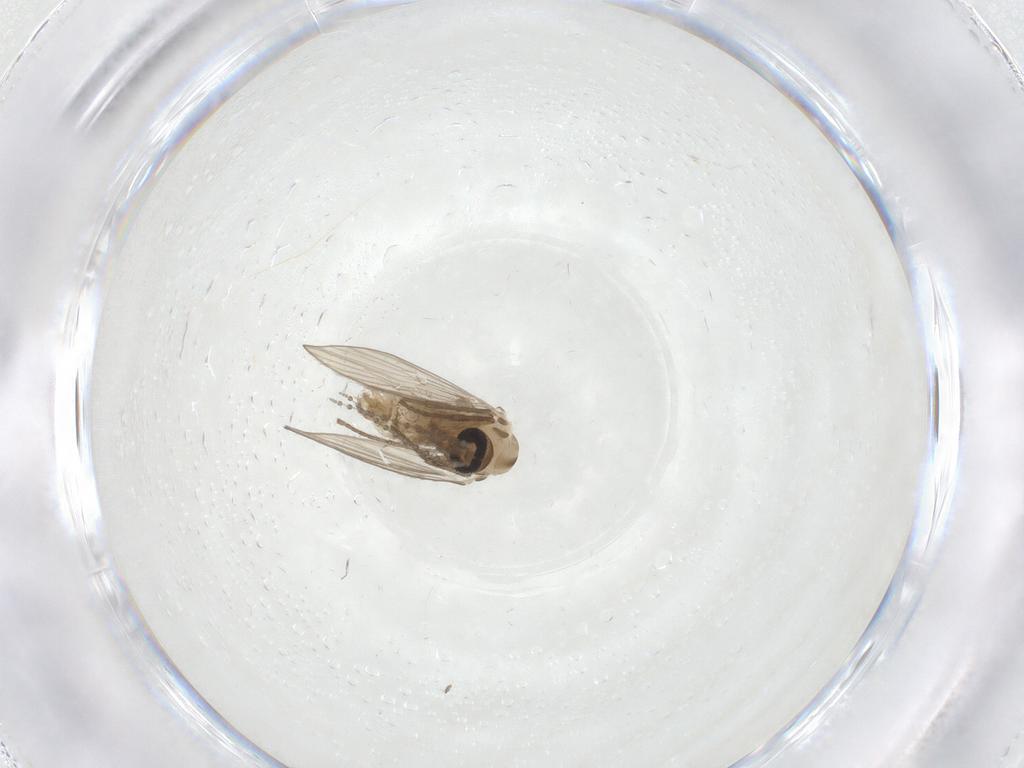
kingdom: Animalia
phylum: Arthropoda
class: Insecta
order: Diptera
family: Psychodidae
